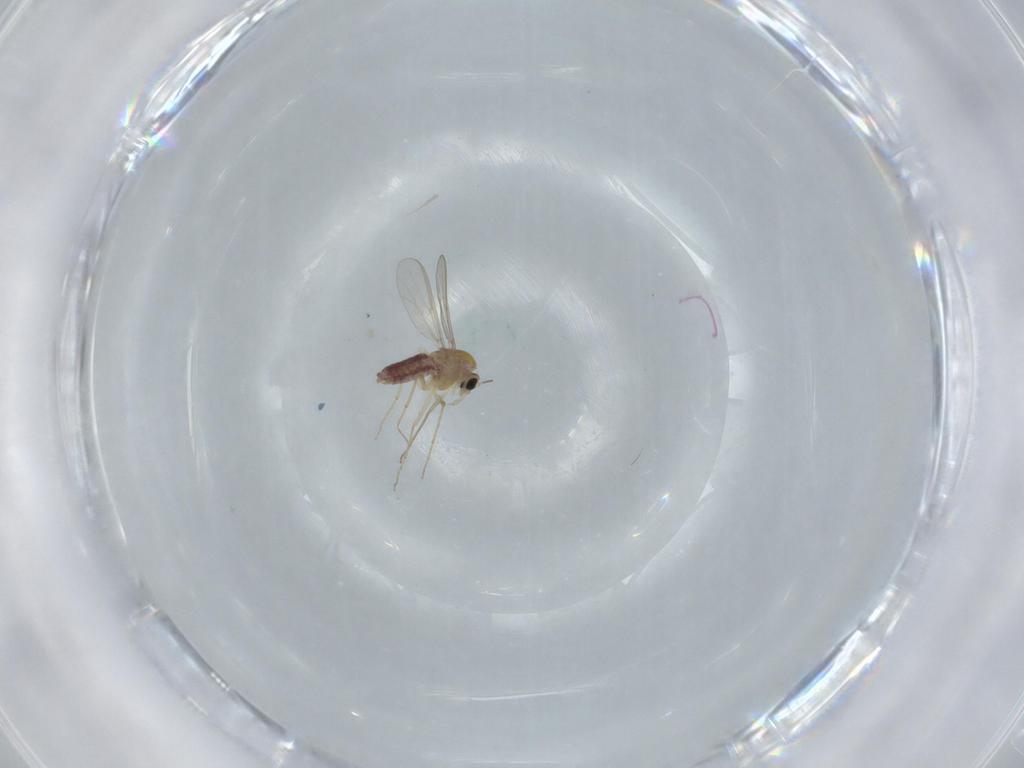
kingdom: Animalia
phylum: Arthropoda
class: Insecta
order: Diptera
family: Chironomidae
